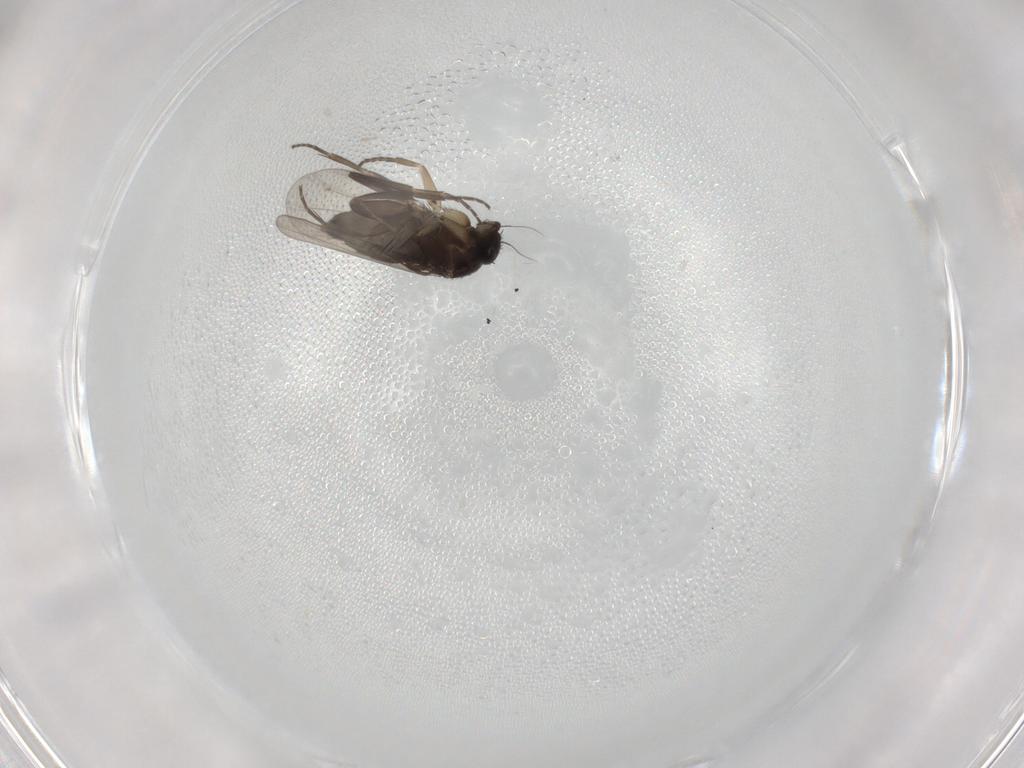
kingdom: Animalia
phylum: Arthropoda
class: Insecta
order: Diptera
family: Phoridae
